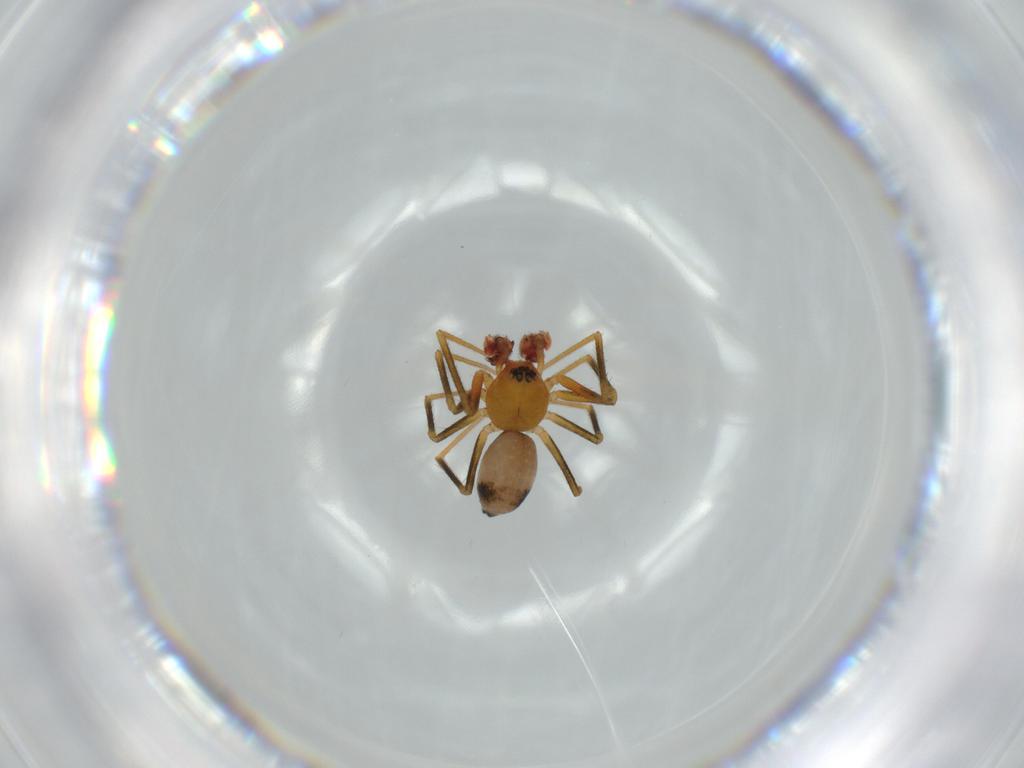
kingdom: Animalia
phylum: Arthropoda
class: Arachnida
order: Araneae
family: Linyphiidae
